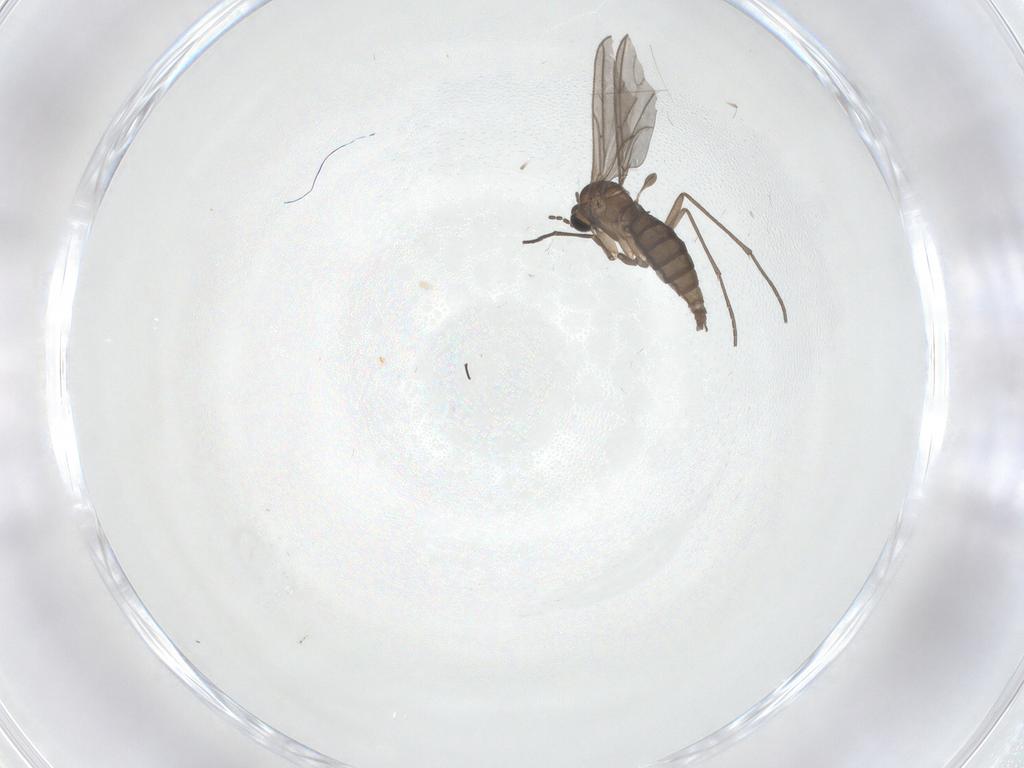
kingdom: Animalia
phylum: Arthropoda
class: Insecta
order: Diptera
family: Sciaridae
